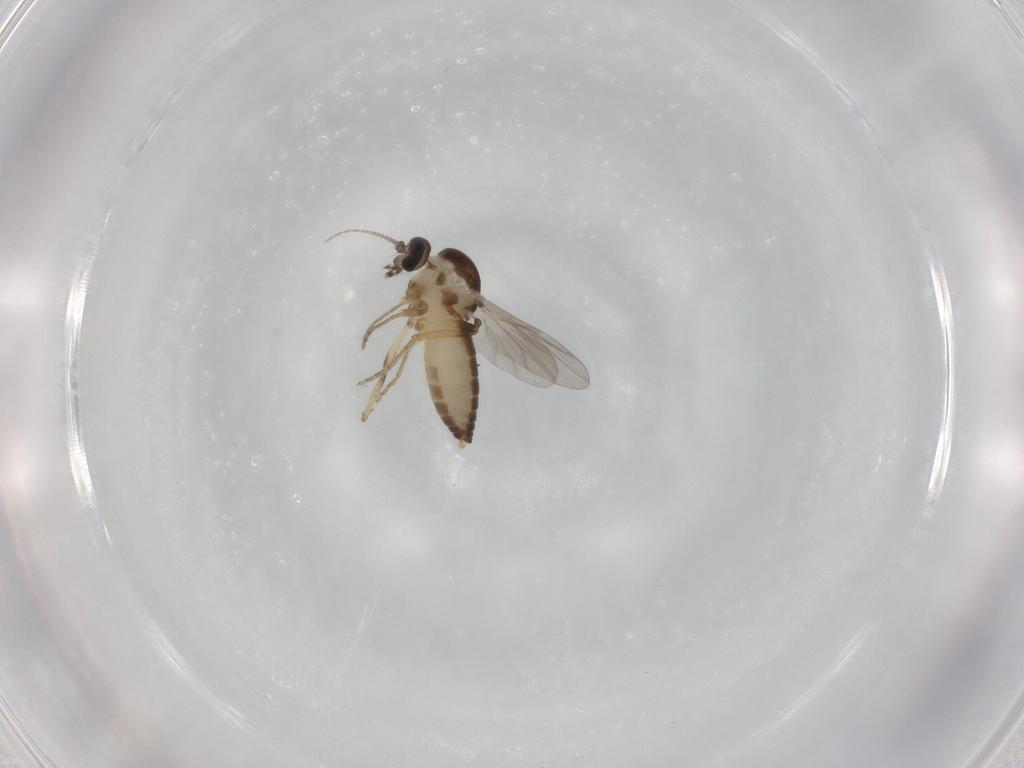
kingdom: Animalia
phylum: Arthropoda
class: Insecta
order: Diptera
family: Ceratopogonidae
